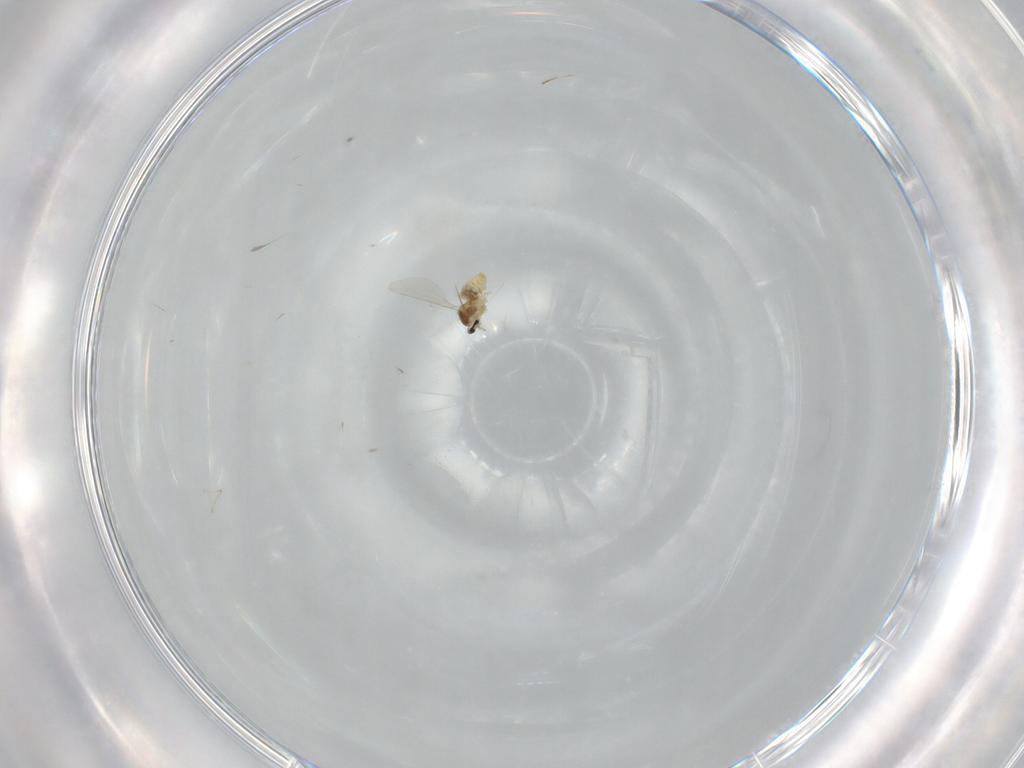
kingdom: Animalia
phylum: Arthropoda
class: Insecta
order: Diptera
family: Cecidomyiidae
